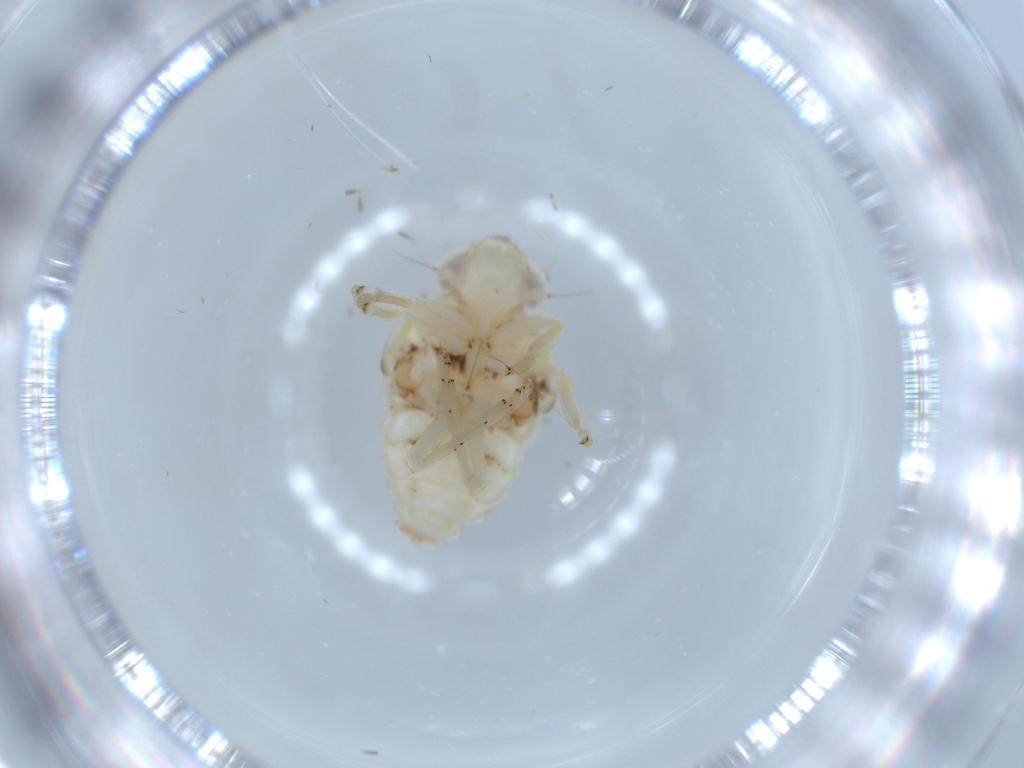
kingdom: Animalia
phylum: Arthropoda
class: Insecta
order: Hemiptera
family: Nogodinidae
